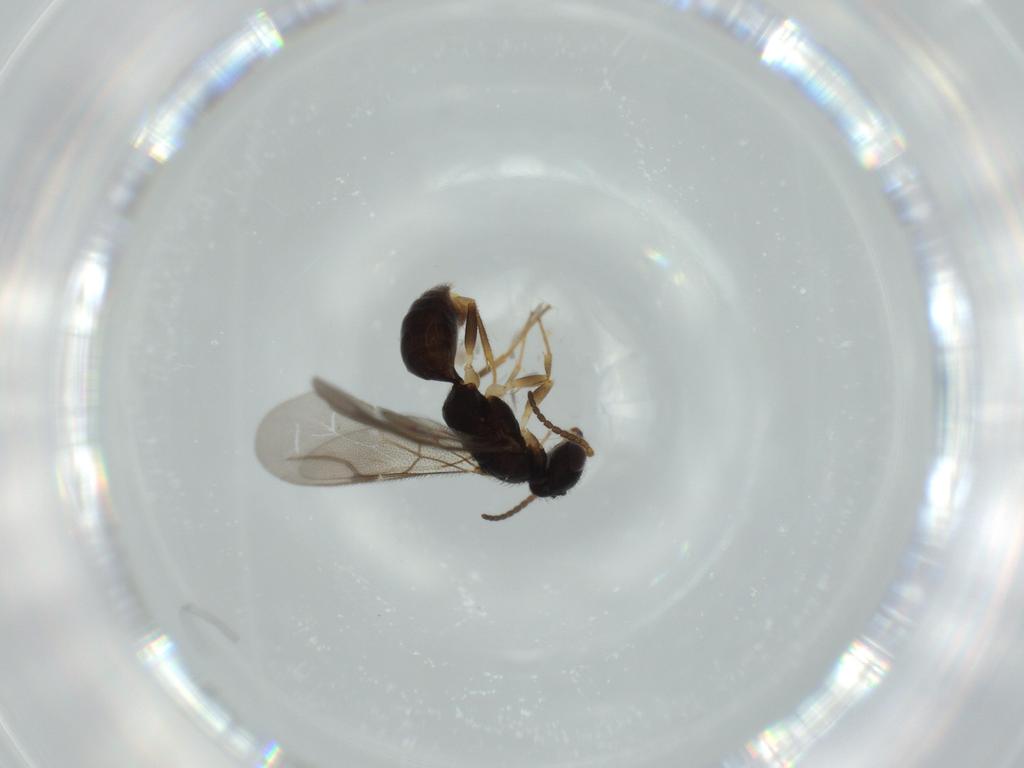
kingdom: Animalia
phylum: Arthropoda
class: Insecta
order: Hymenoptera
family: Bethylidae
